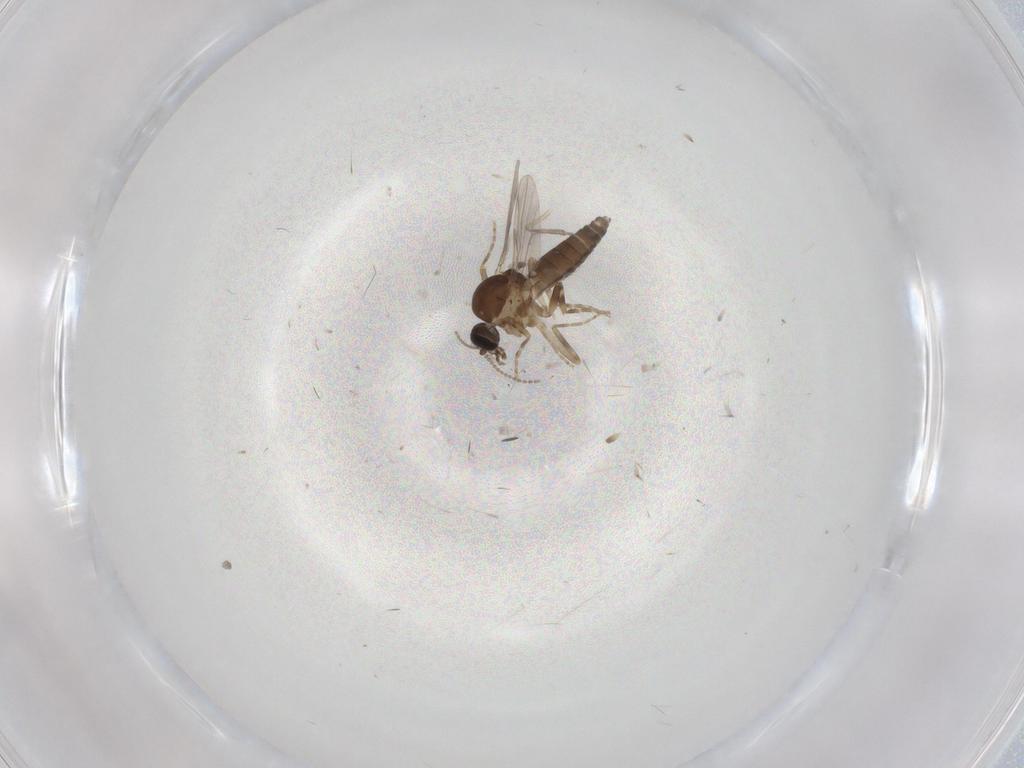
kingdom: Animalia
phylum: Arthropoda
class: Insecta
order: Diptera
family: Ceratopogonidae
